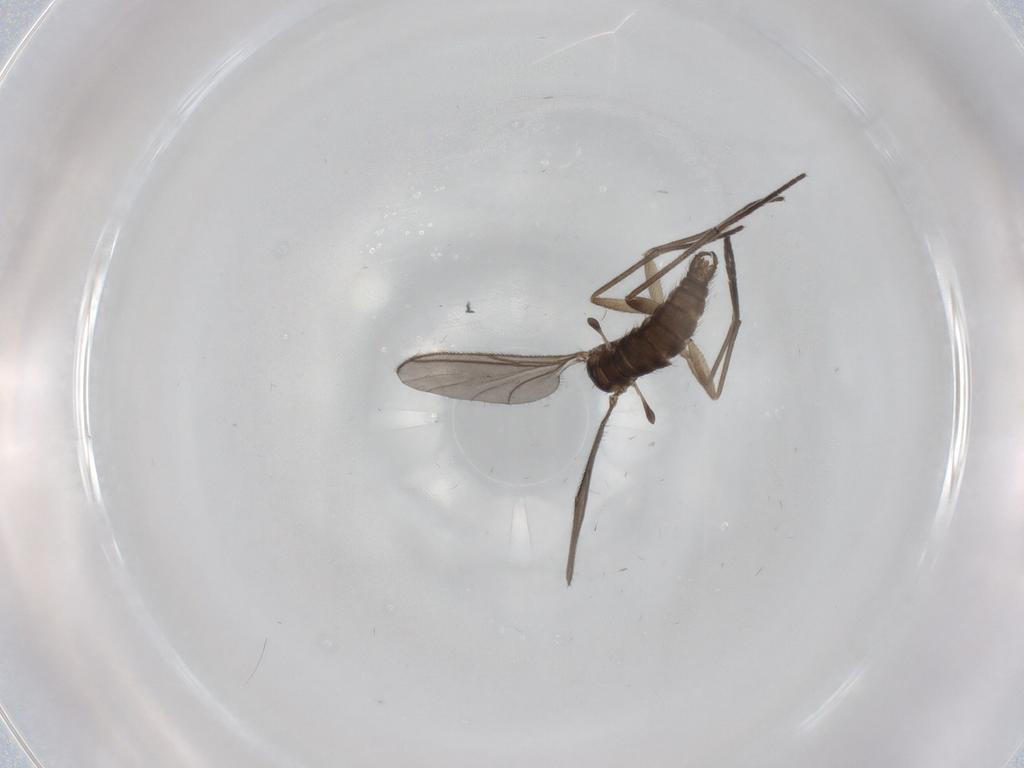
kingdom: Animalia
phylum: Arthropoda
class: Insecta
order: Diptera
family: Sciaridae
